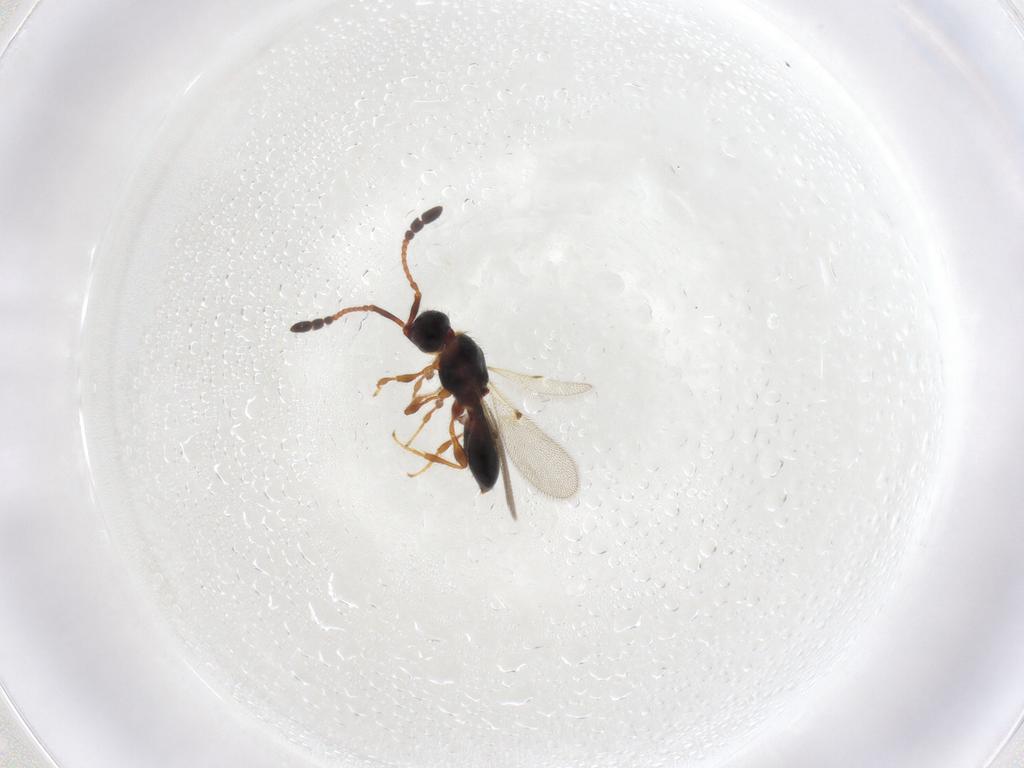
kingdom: Animalia
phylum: Arthropoda
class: Insecta
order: Hymenoptera
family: Diapriidae
